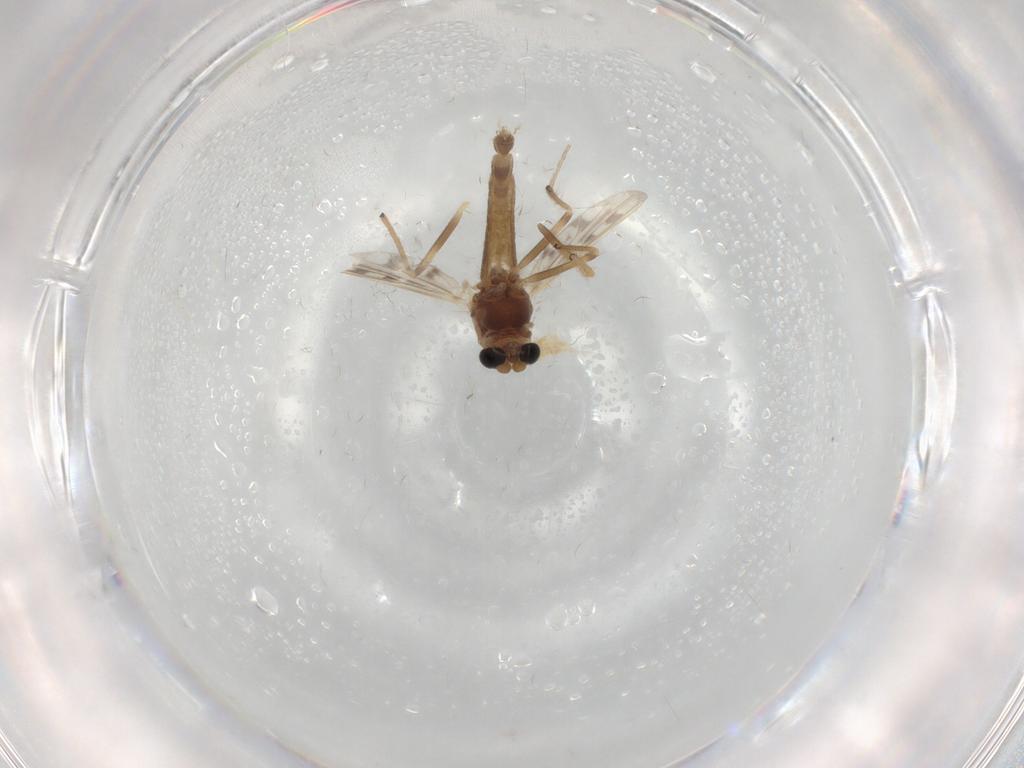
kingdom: Animalia
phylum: Arthropoda
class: Insecta
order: Diptera
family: Chironomidae
